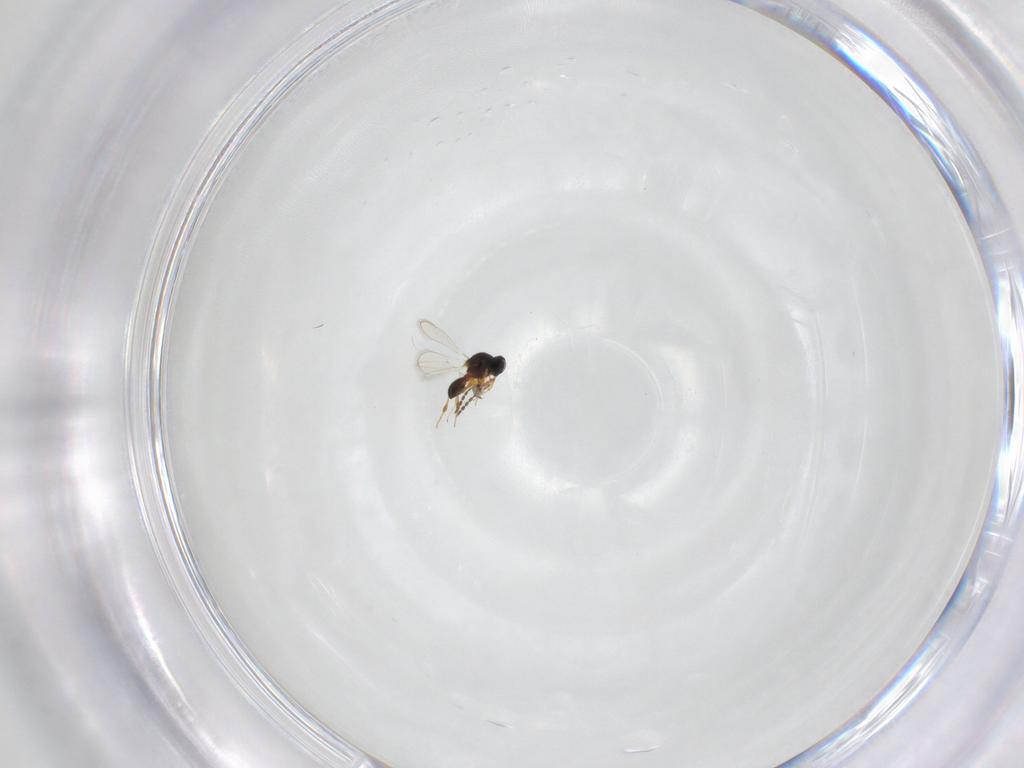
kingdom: Animalia
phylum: Arthropoda
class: Insecta
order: Hymenoptera
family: Platygastridae
